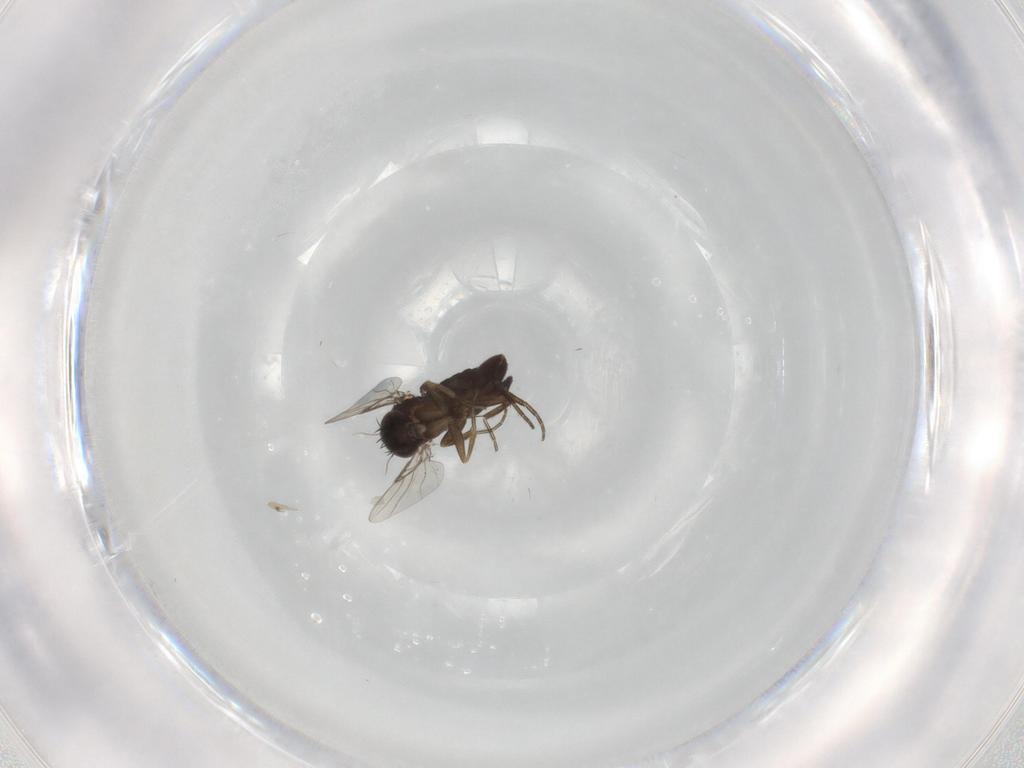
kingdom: Animalia
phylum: Arthropoda
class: Insecta
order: Diptera
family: Phoridae
